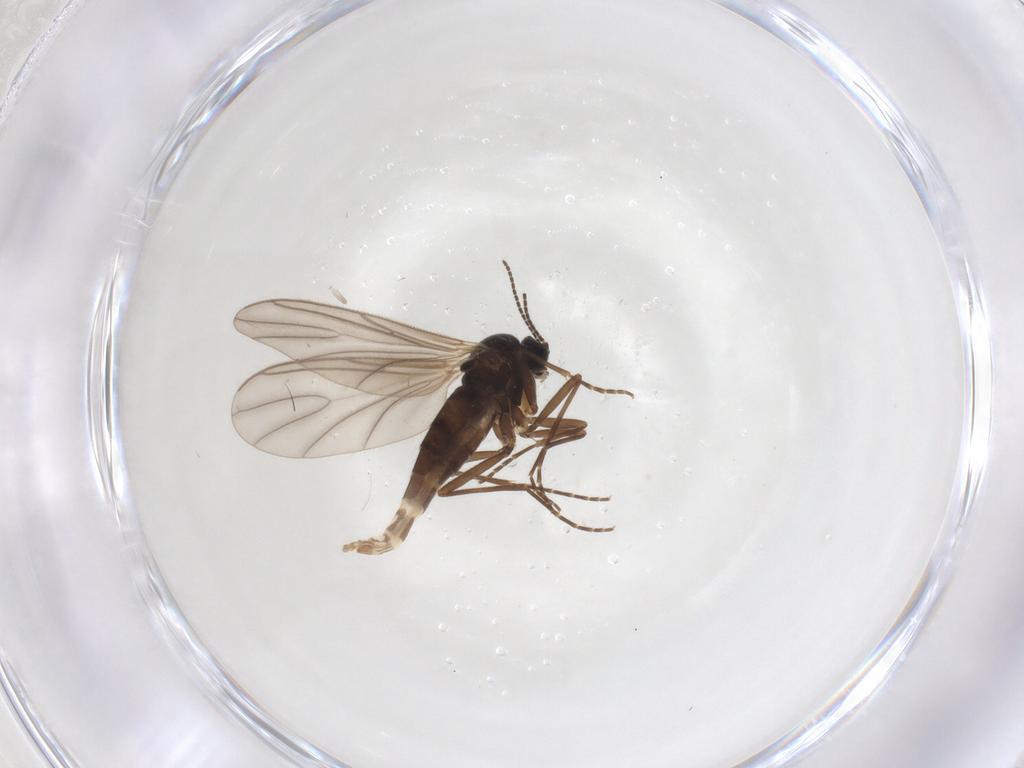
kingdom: Animalia
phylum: Arthropoda
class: Insecta
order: Diptera
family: Sciaridae
